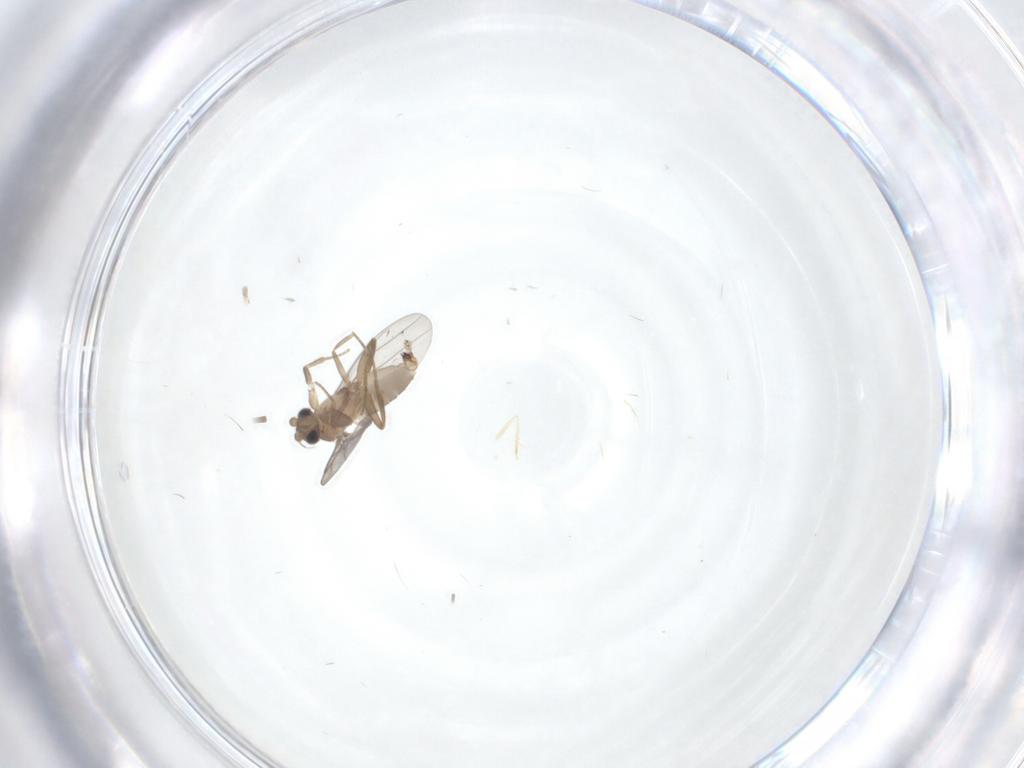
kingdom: Animalia
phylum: Arthropoda
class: Insecta
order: Diptera
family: Cecidomyiidae
